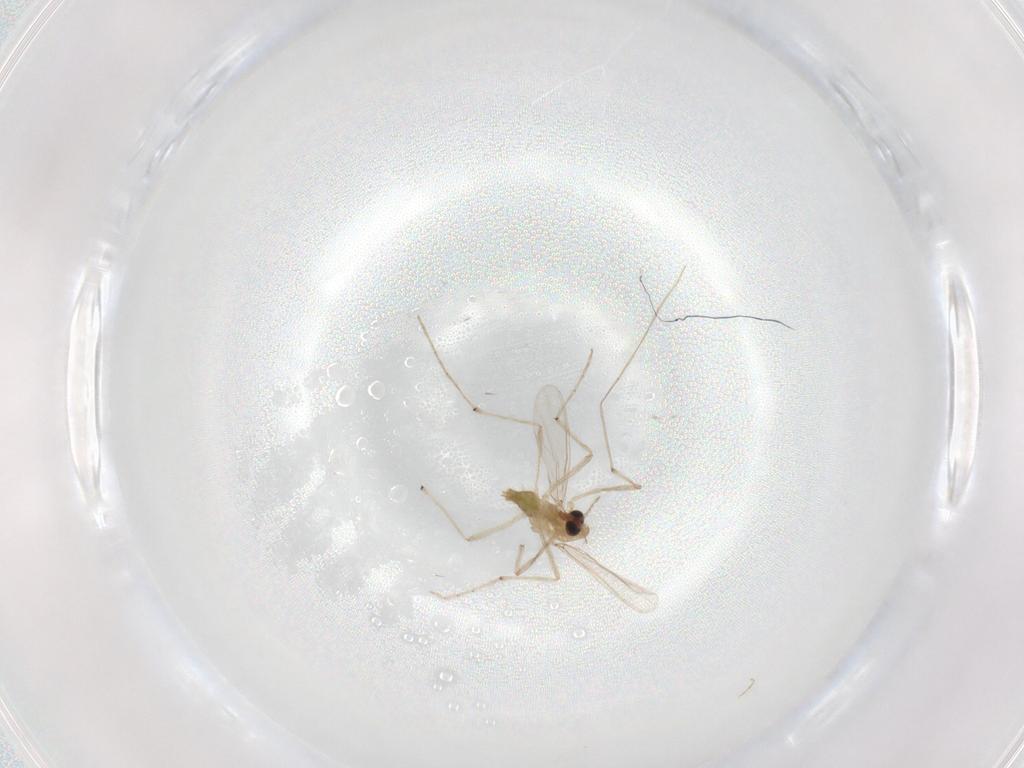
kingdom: Animalia
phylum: Arthropoda
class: Insecta
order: Diptera
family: Chironomidae
